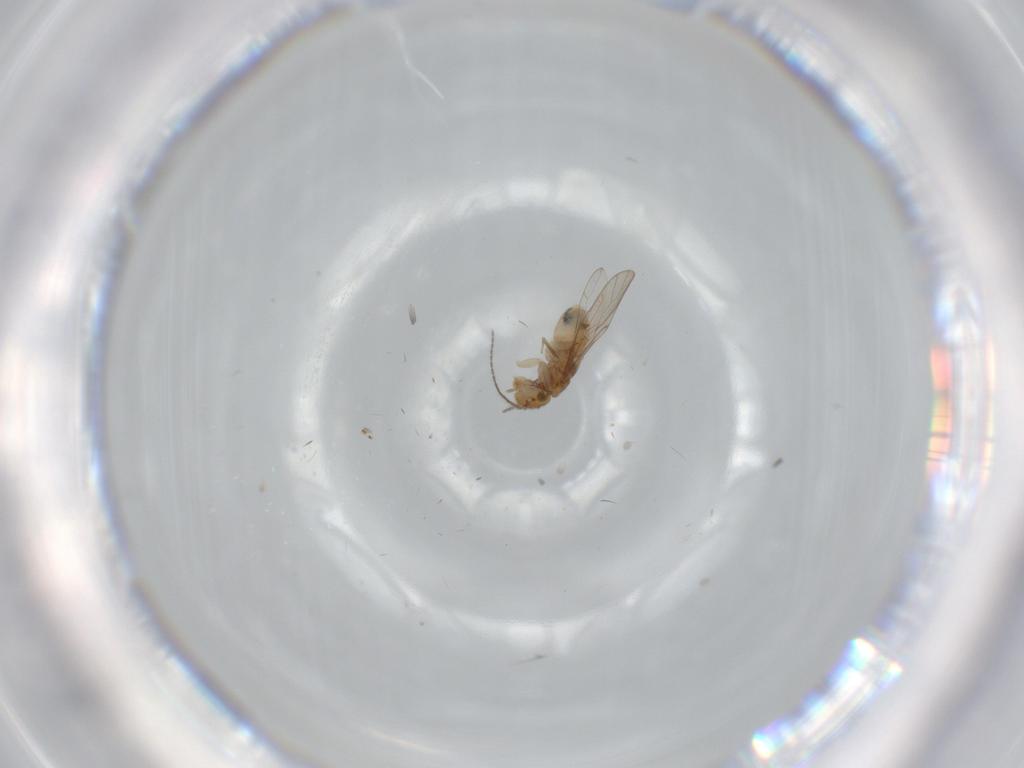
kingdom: Animalia
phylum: Arthropoda
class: Insecta
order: Psocodea
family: Ectopsocidae
